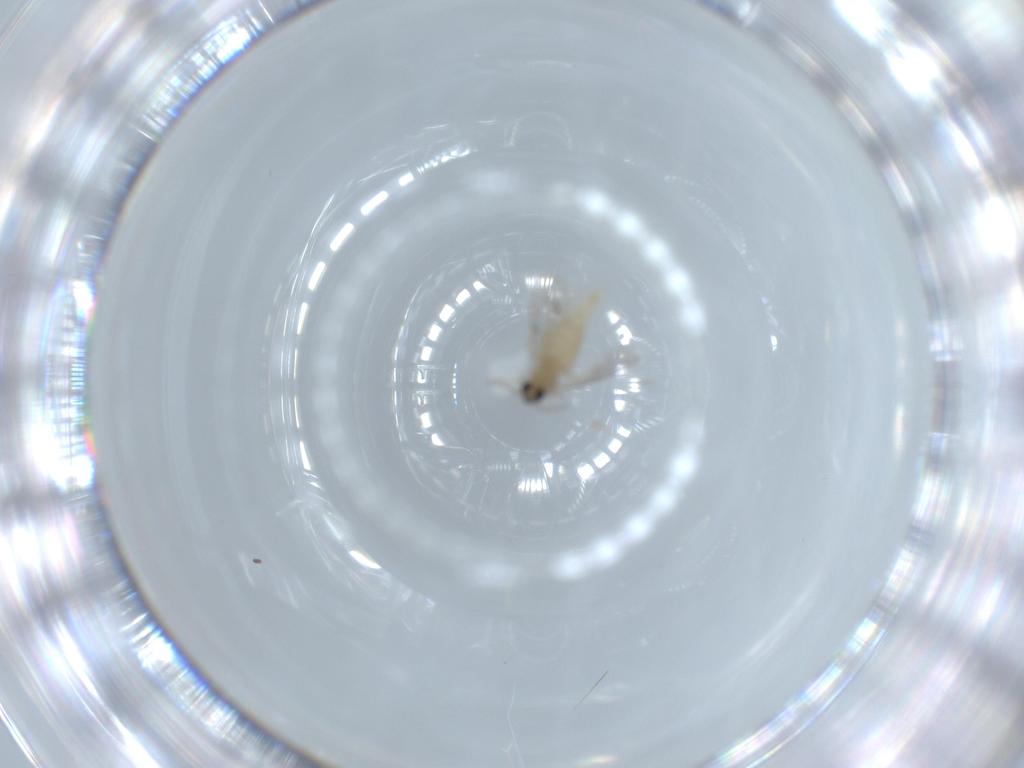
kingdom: Animalia
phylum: Arthropoda
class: Insecta
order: Diptera
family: Cecidomyiidae
